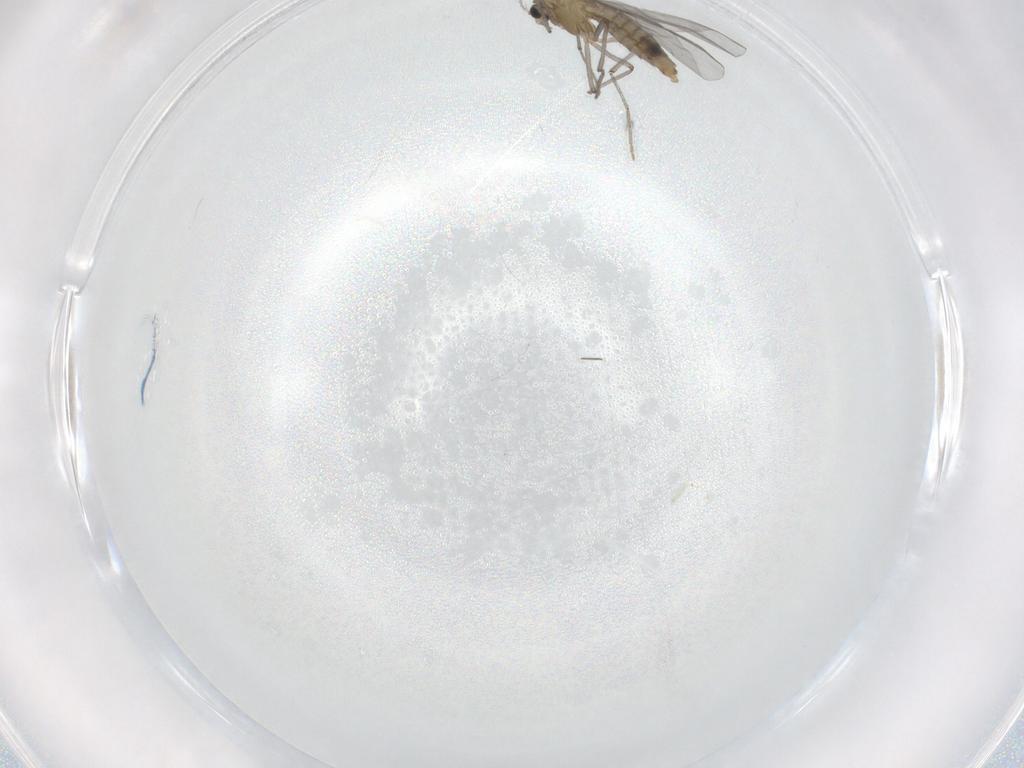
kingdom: Animalia
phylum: Arthropoda
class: Insecta
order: Diptera
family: Chironomidae
